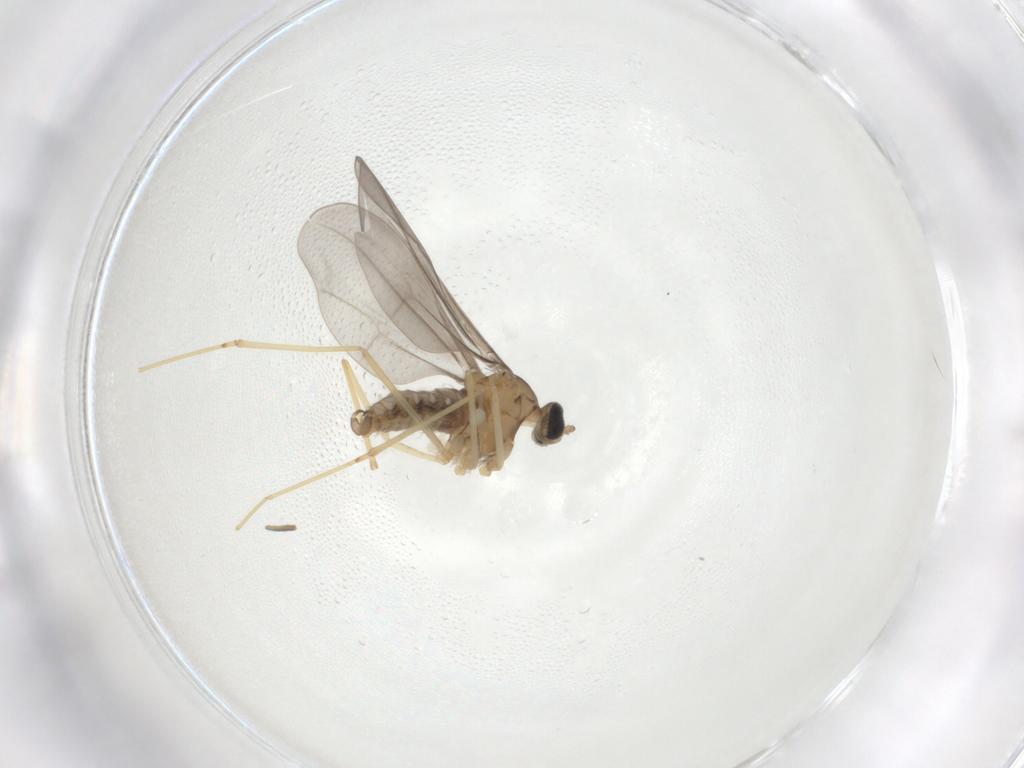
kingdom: Animalia
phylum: Arthropoda
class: Insecta
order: Diptera
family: Cecidomyiidae
